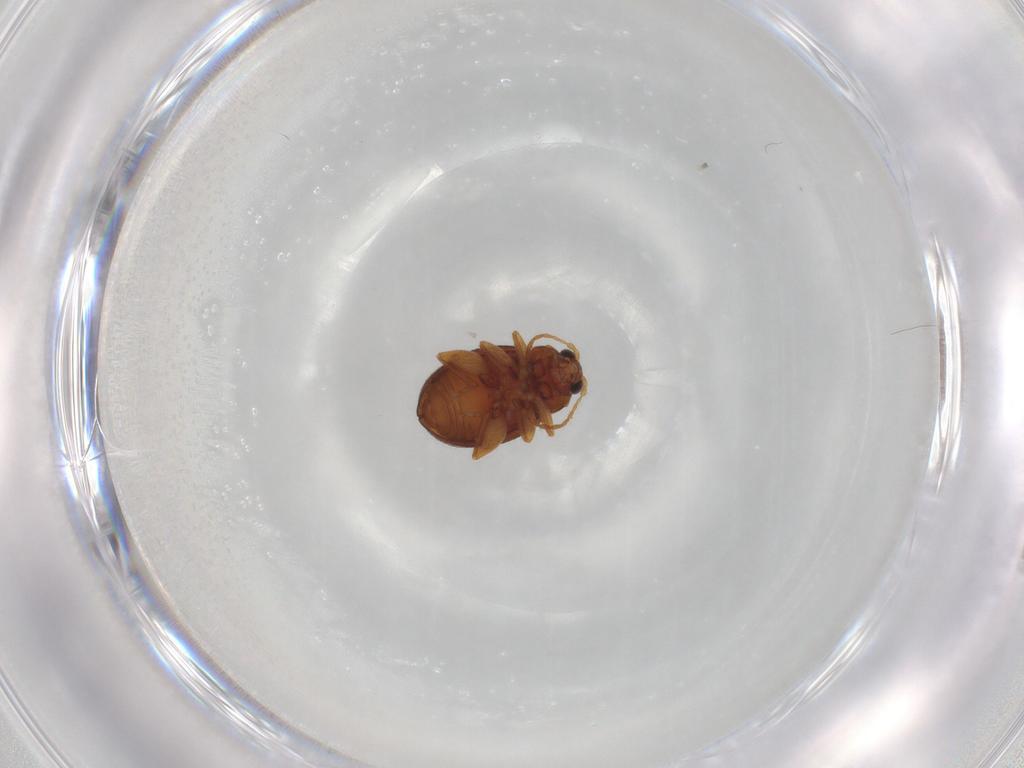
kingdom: Animalia
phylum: Arthropoda
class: Insecta
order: Coleoptera
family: Chrysomelidae
